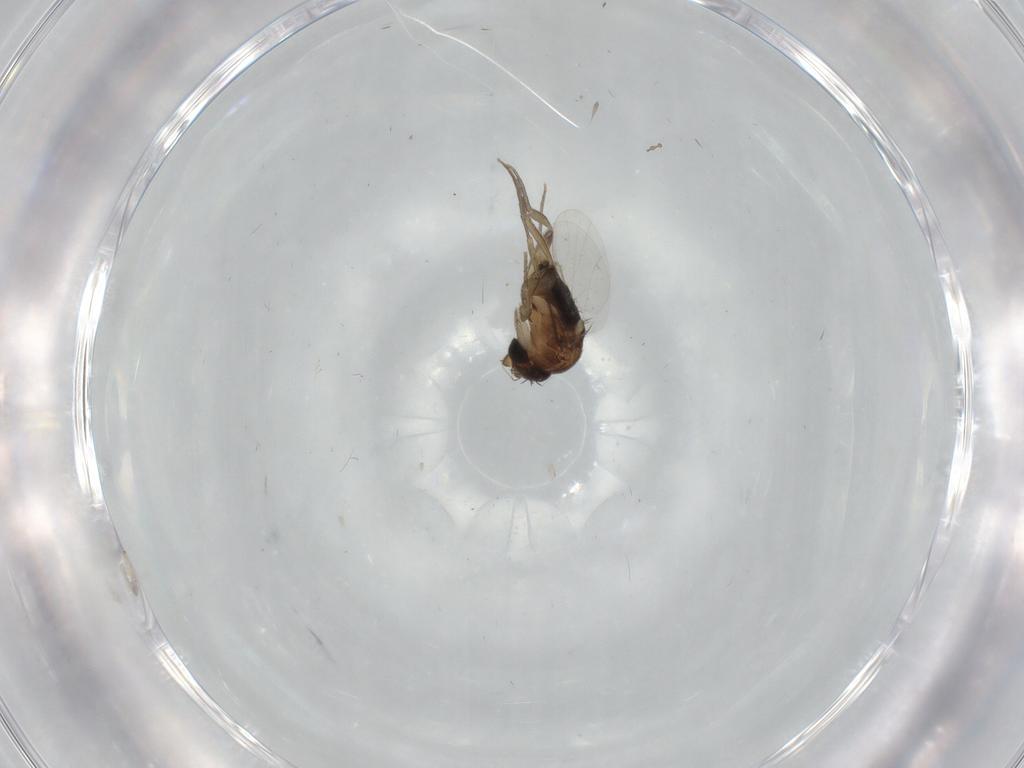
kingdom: Animalia
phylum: Arthropoda
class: Insecta
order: Diptera
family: Phoridae
